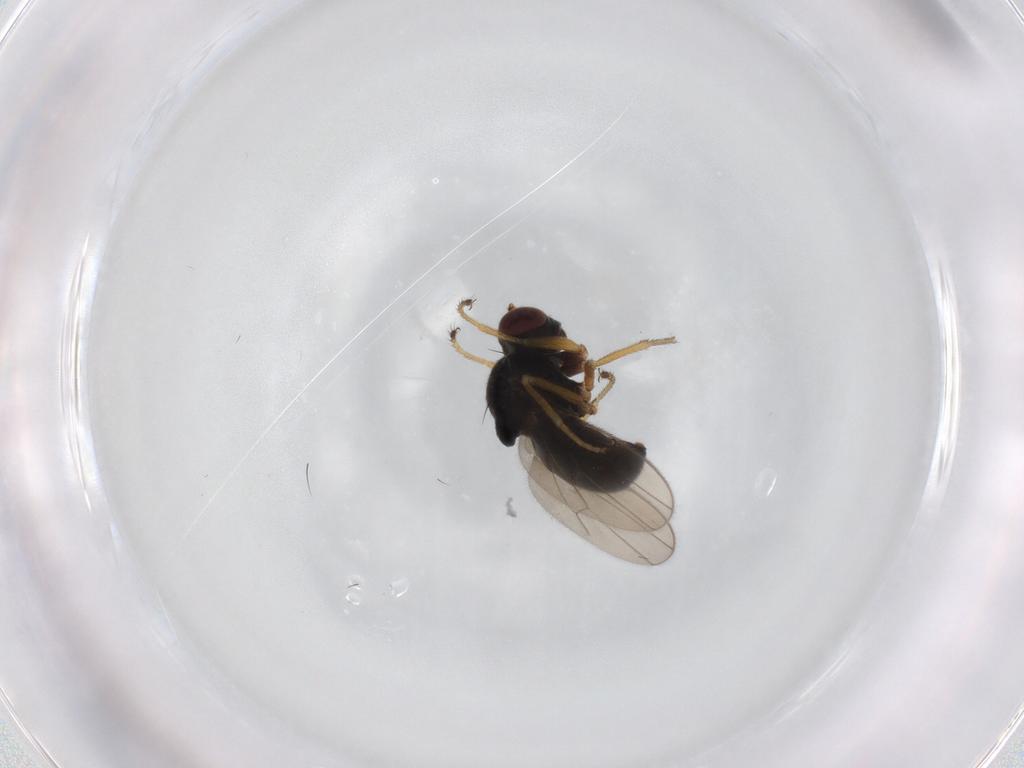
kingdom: Animalia
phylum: Arthropoda
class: Insecta
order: Diptera
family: Ephydridae
